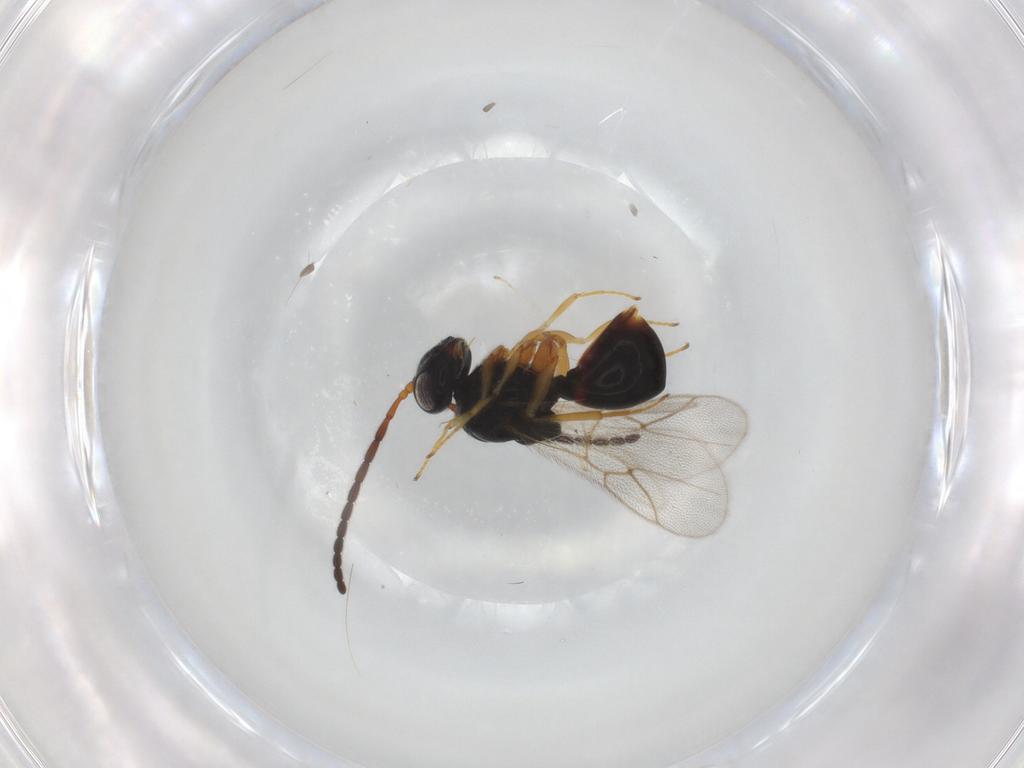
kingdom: Animalia
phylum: Arthropoda
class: Insecta
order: Hymenoptera
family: Figitidae
